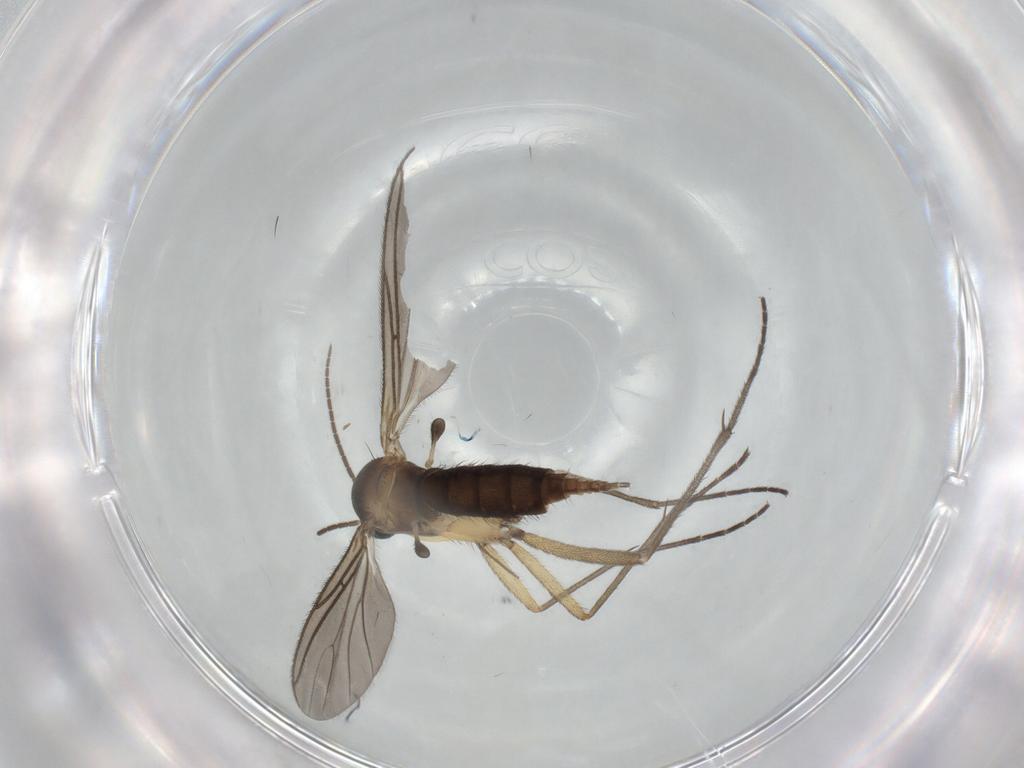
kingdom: Animalia
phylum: Arthropoda
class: Insecta
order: Diptera
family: Sciaridae
